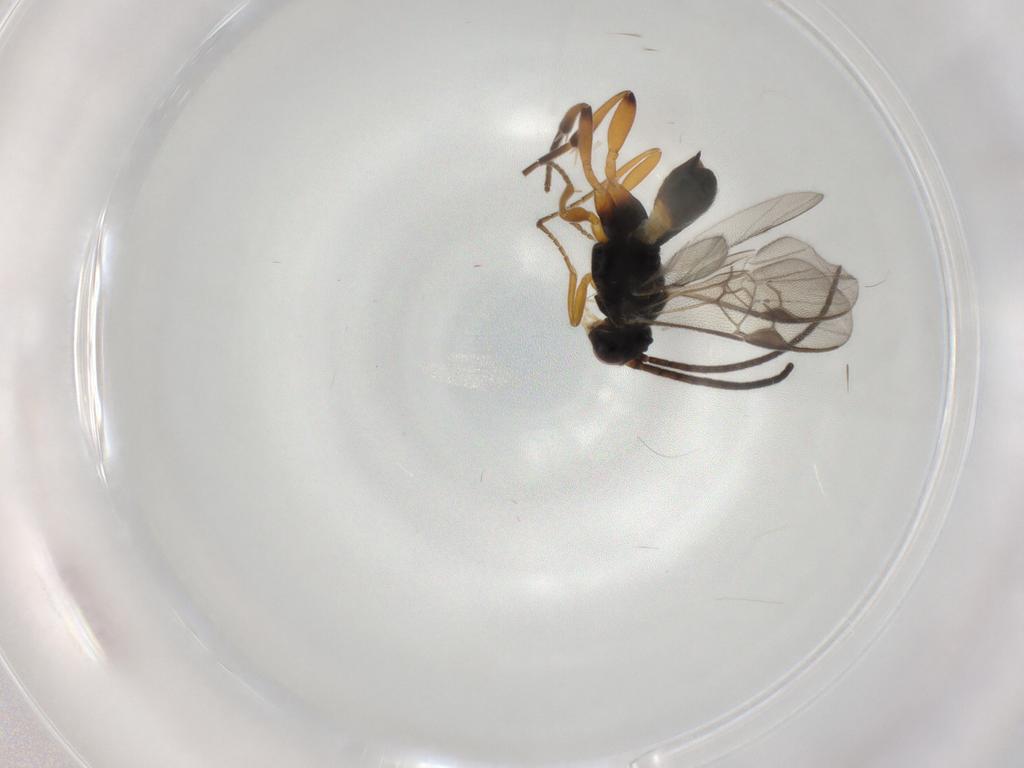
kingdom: Animalia
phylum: Arthropoda
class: Insecta
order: Hymenoptera
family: Braconidae
